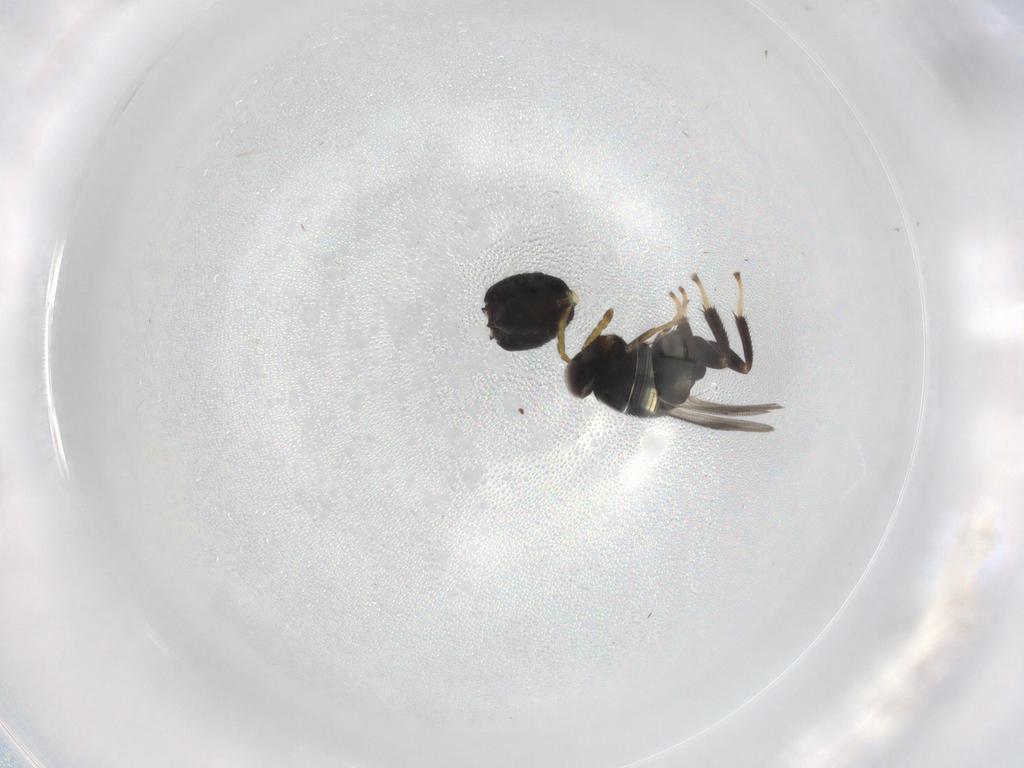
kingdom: Animalia
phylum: Arthropoda
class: Insecta
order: Hymenoptera
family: Aphelinidae
